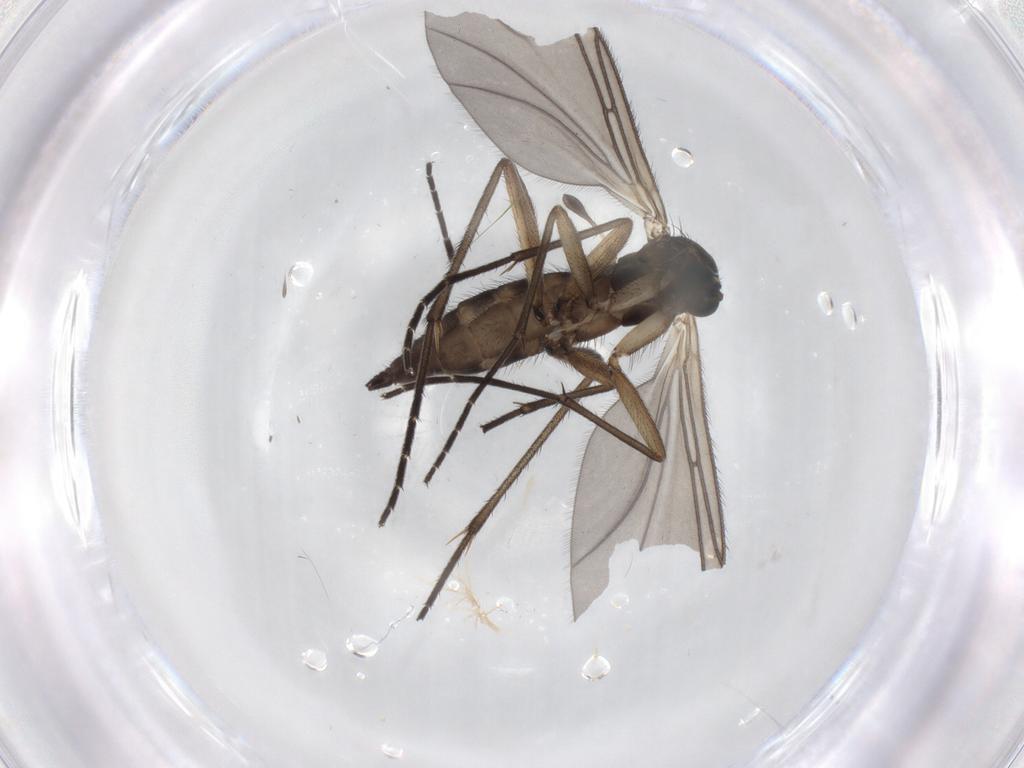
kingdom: Animalia
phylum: Arthropoda
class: Insecta
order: Diptera
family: Sciaridae
